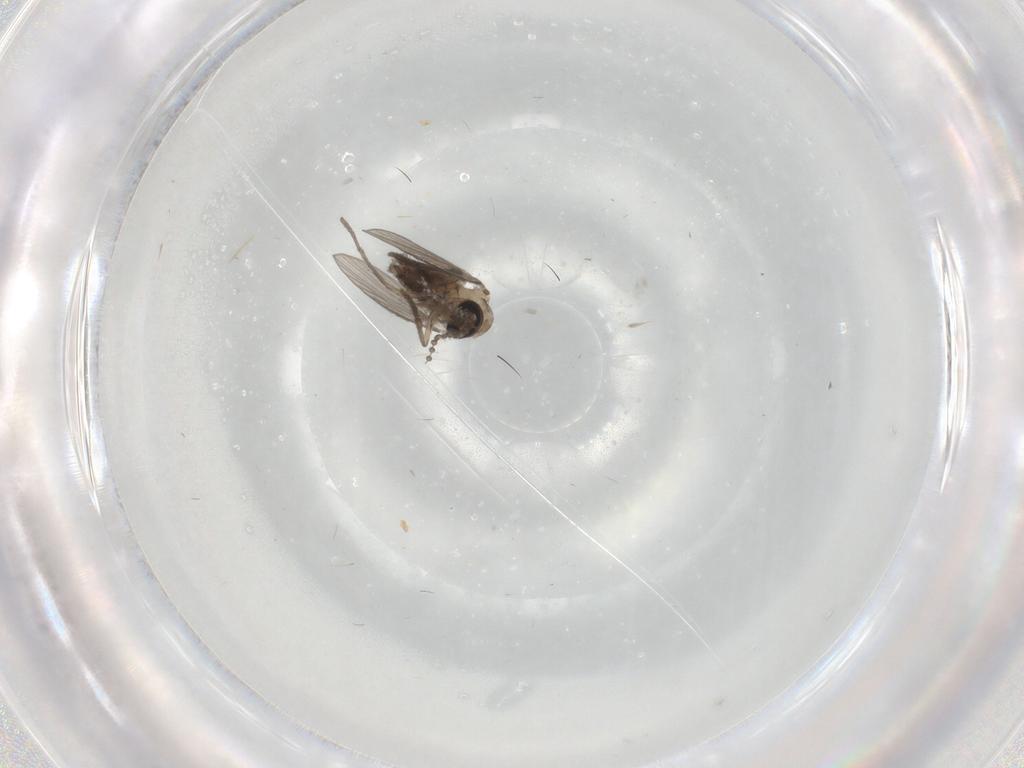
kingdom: Animalia
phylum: Arthropoda
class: Insecta
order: Diptera
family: Psychodidae
